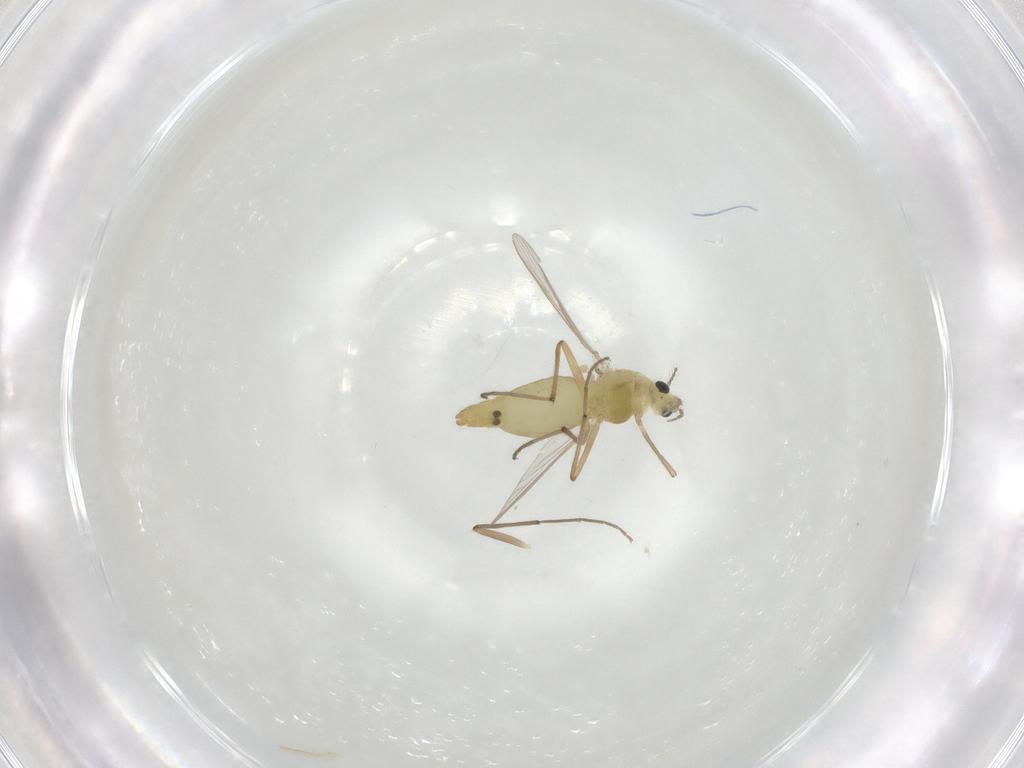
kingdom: Animalia
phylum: Arthropoda
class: Insecta
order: Diptera
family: Chironomidae
